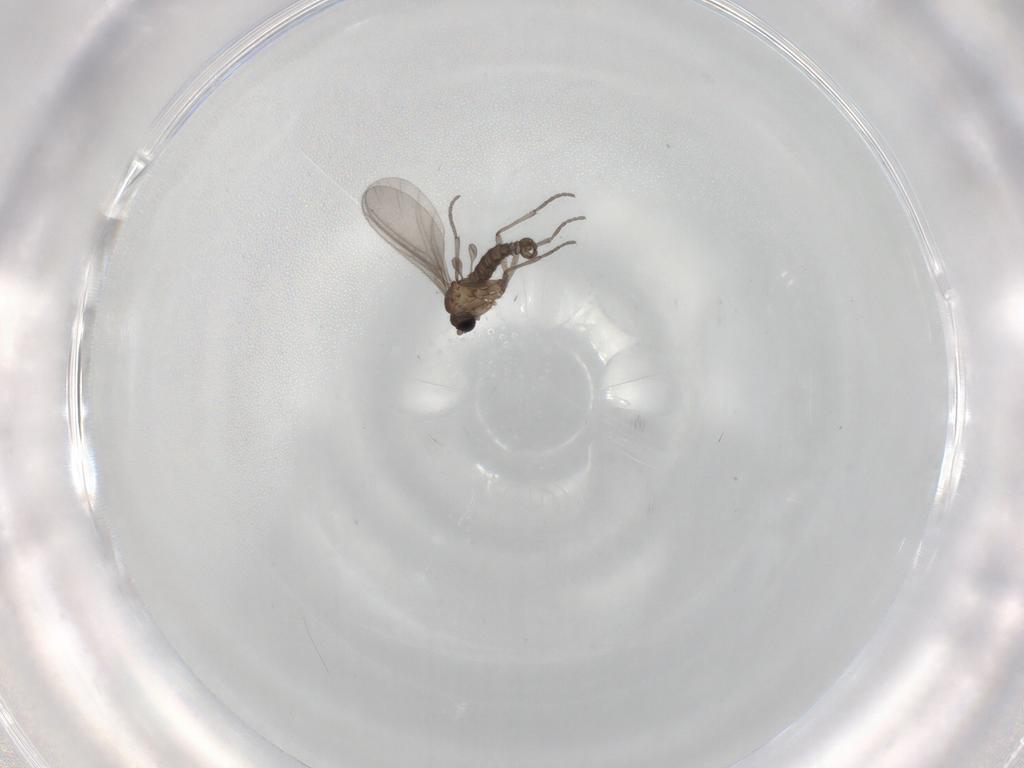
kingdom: Animalia
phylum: Arthropoda
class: Insecta
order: Diptera
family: Sciaridae
